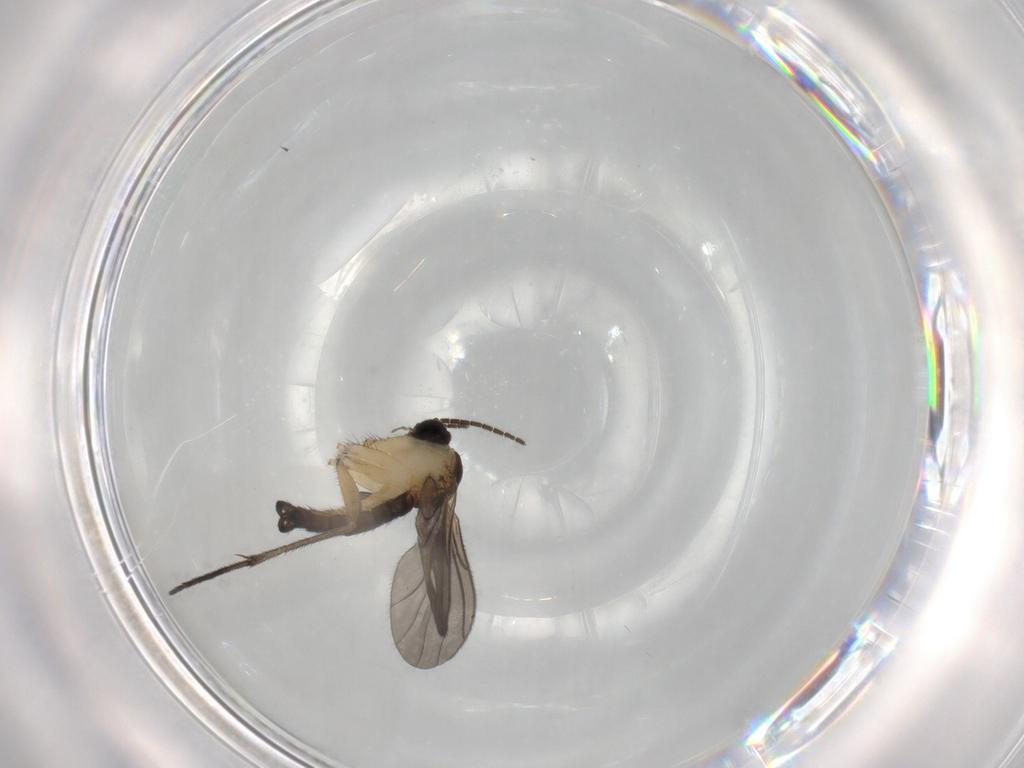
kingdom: Animalia
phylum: Arthropoda
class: Insecta
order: Diptera
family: Sciaridae
